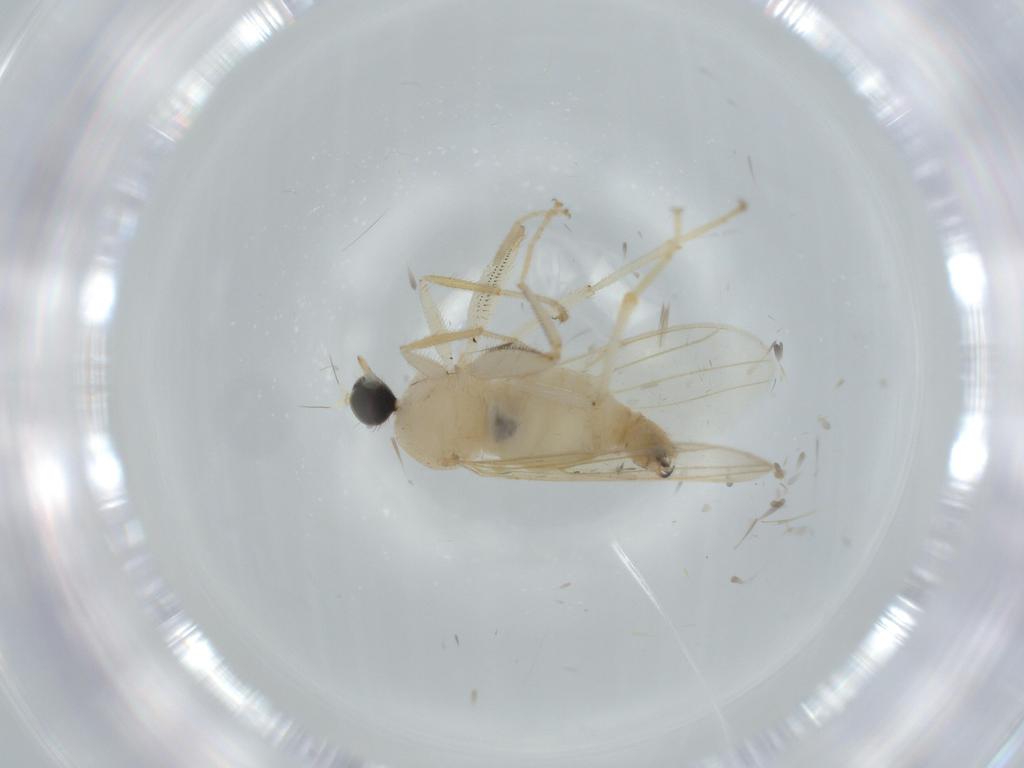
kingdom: Animalia
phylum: Arthropoda
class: Insecta
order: Diptera
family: Hybotidae
